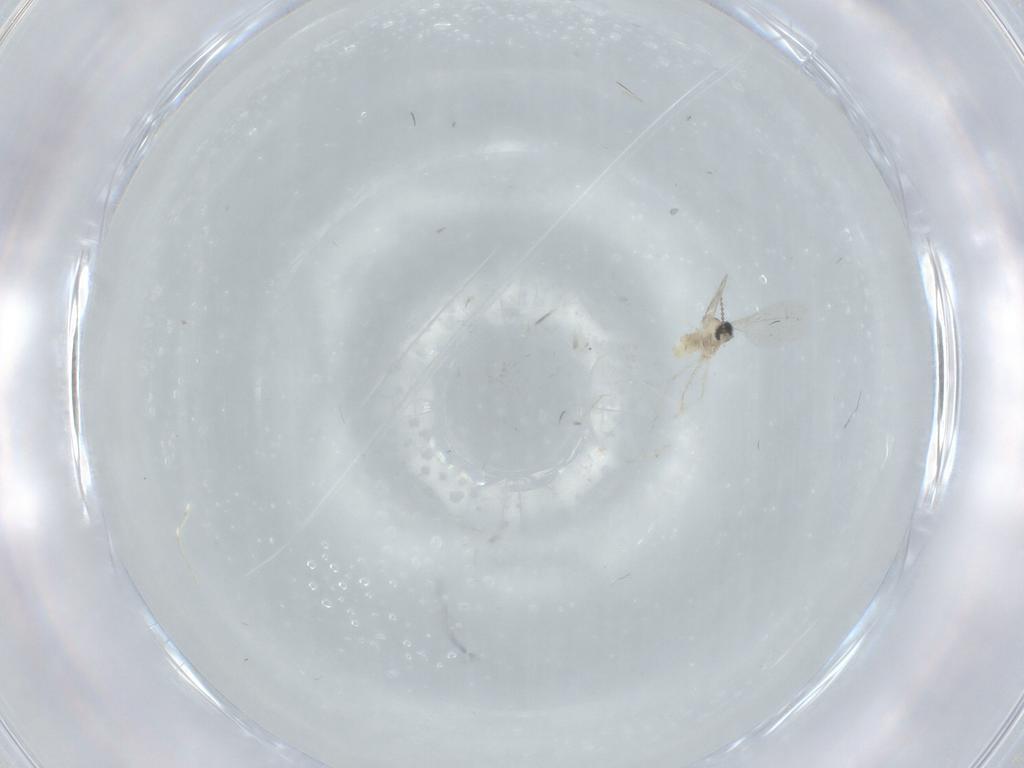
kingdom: Animalia
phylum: Arthropoda
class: Insecta
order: Diptera
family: Cecidomyiidae
